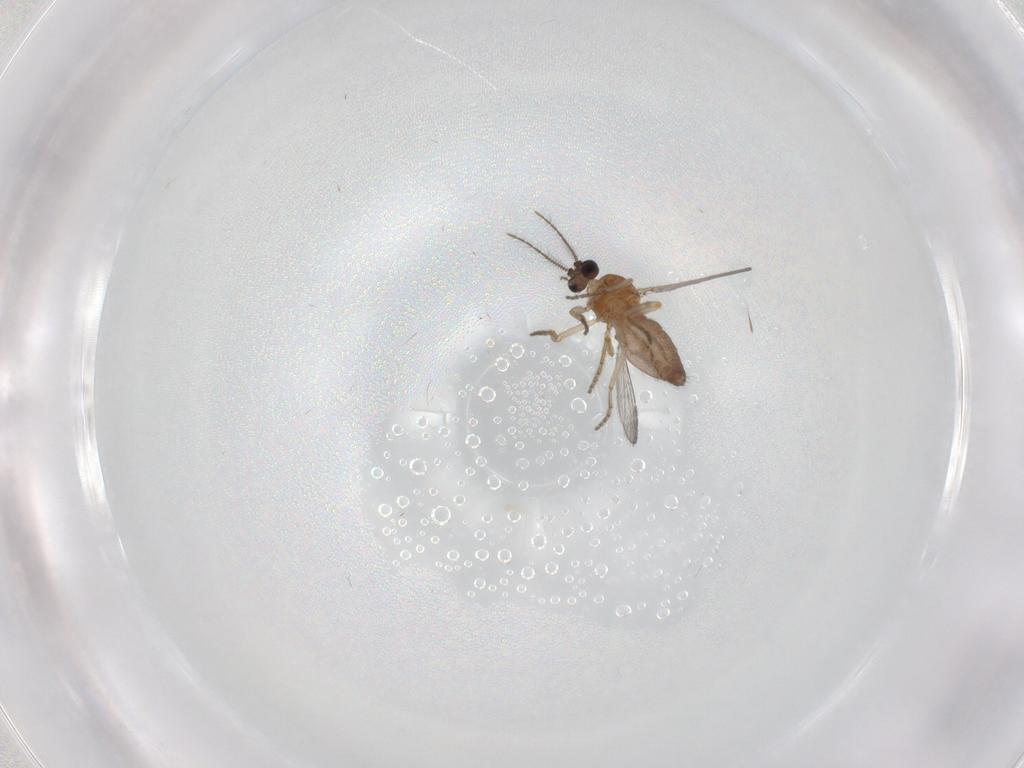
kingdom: Animalia
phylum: Arthropoda
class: Insecta
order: Diptera
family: Ceratopogonidae
